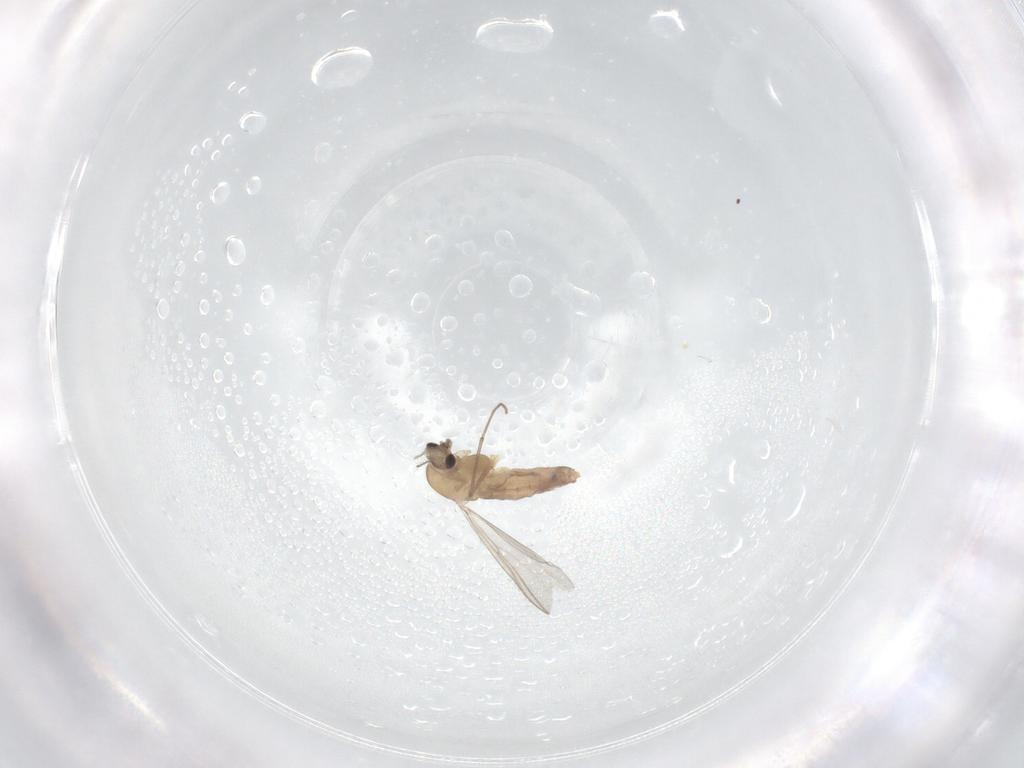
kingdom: Animalia
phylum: Arthropoda
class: Insecta
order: Diptera
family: Chironomidae
